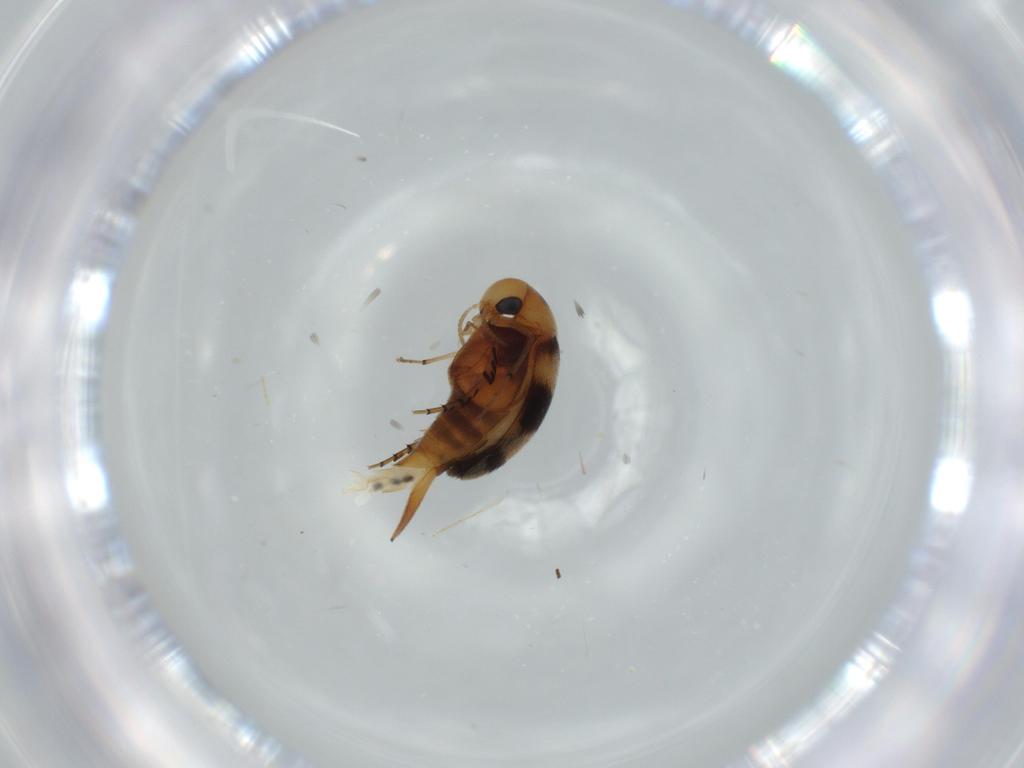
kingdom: Animalia
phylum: Arthropoda
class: Insecta
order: Coleoptera
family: Mordellidae
